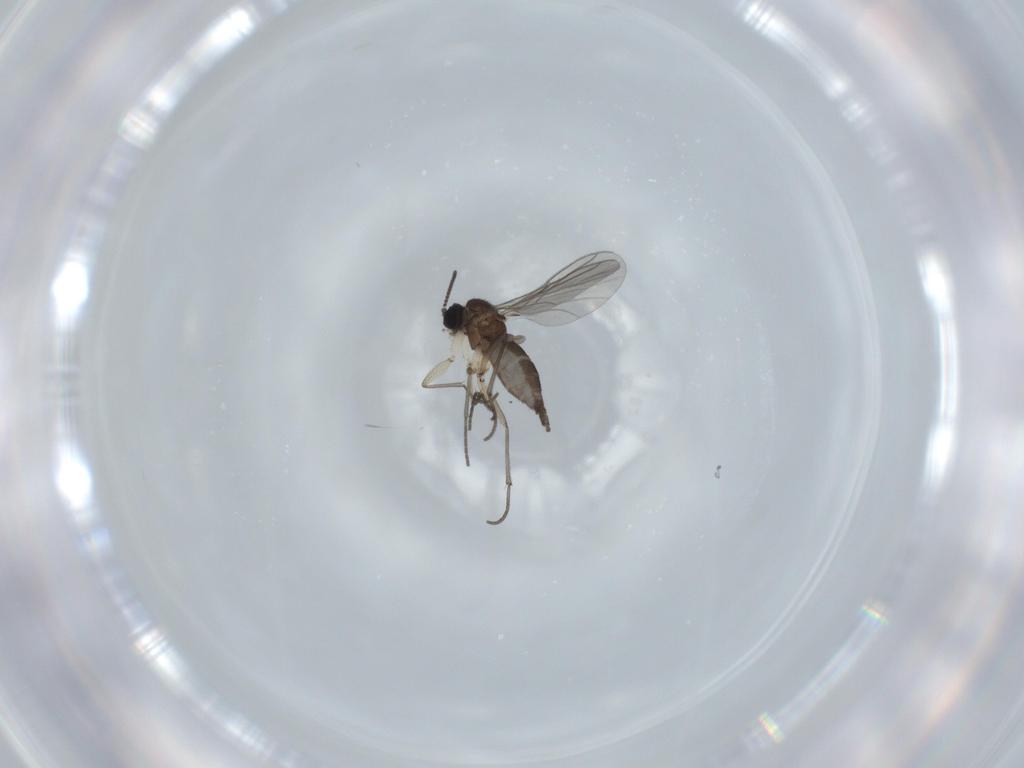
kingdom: Animalia
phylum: Arthropoda
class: Insecta
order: Diptera
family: Sciaridae
